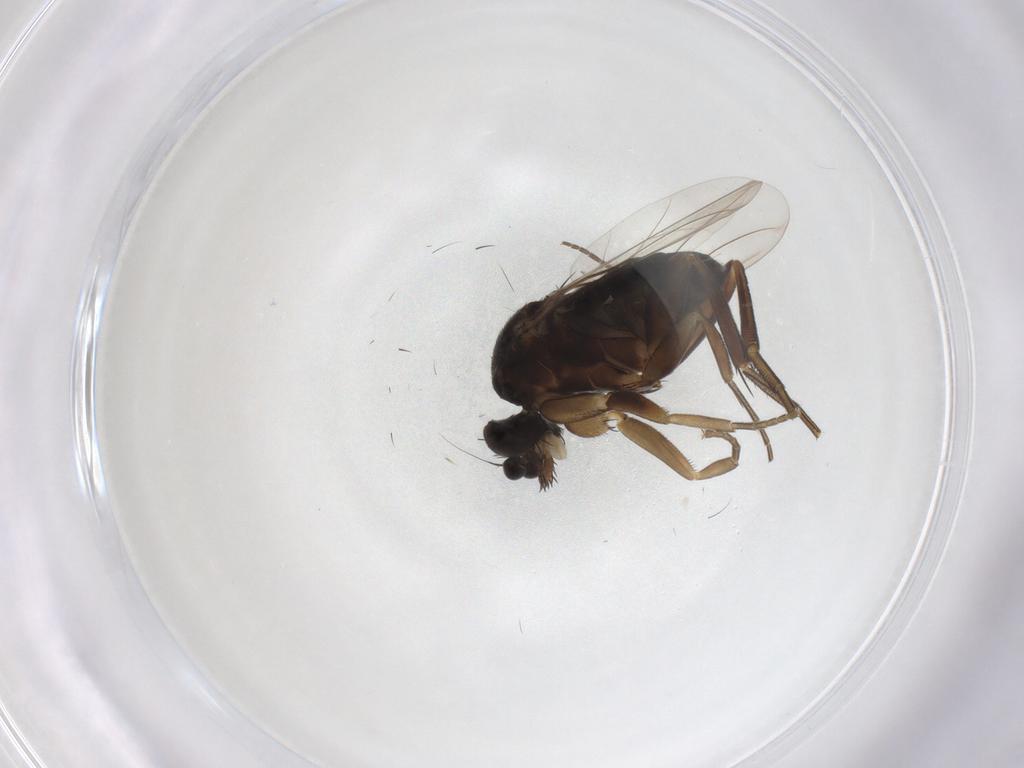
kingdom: Animalia
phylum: Arthropoda
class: Insecta
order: Diptera
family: Phoridae
